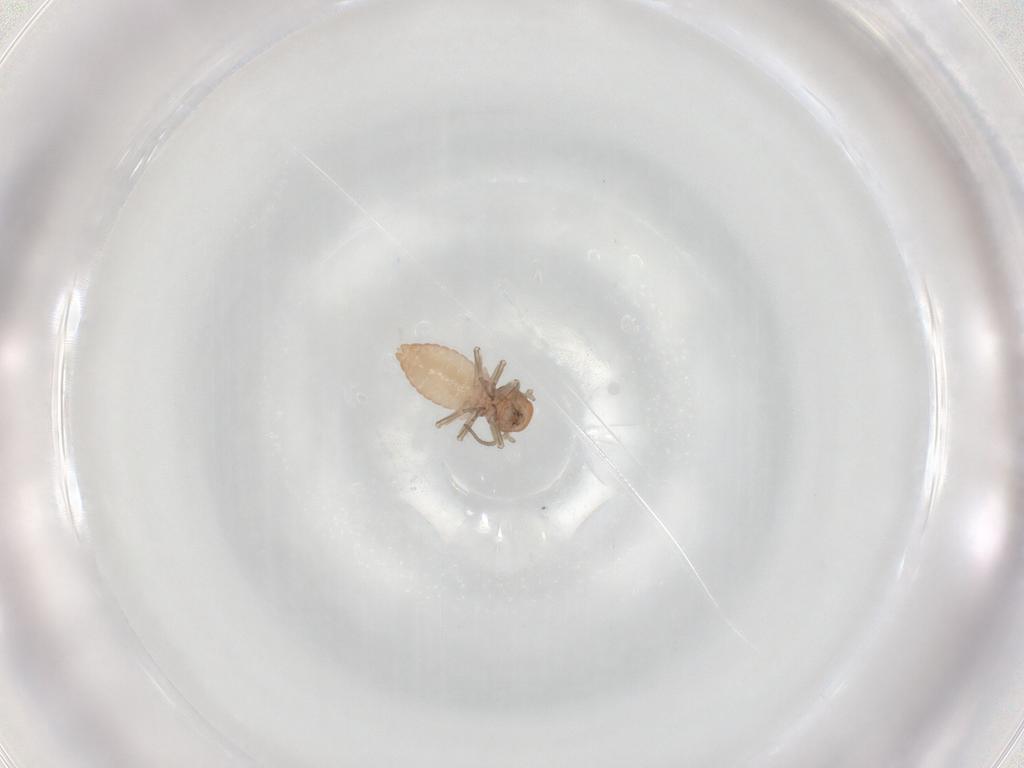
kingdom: Animalia
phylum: Arthropoda
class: Insecta
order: Psocodea
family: Caeciliusidae
